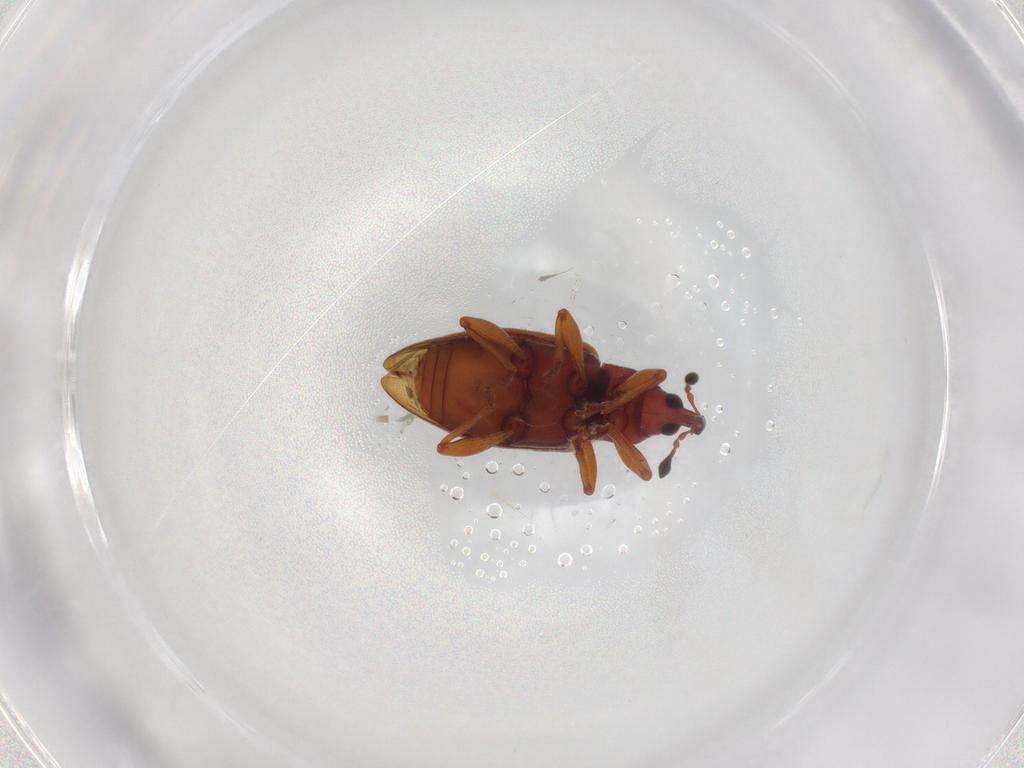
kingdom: Animalia
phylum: Arthropoda
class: Insecta
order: Coleoptera
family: Curculionidae
